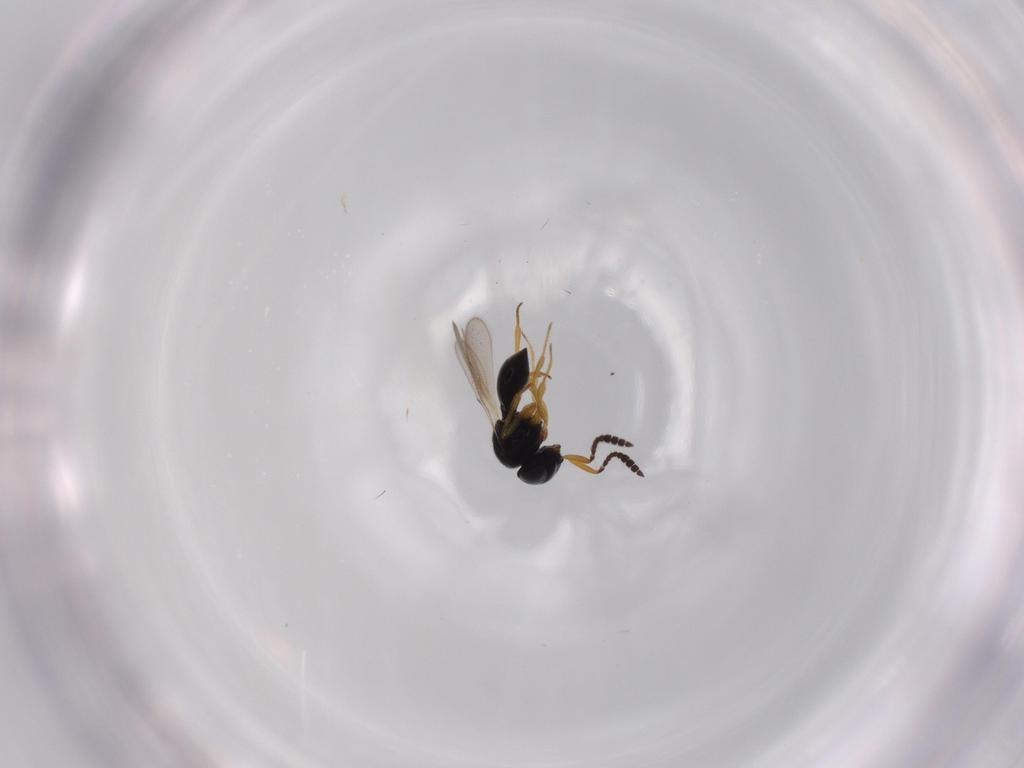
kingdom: Animalia
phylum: Arthropoda
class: Insecta
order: Hymenoptera
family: Scelionidae
